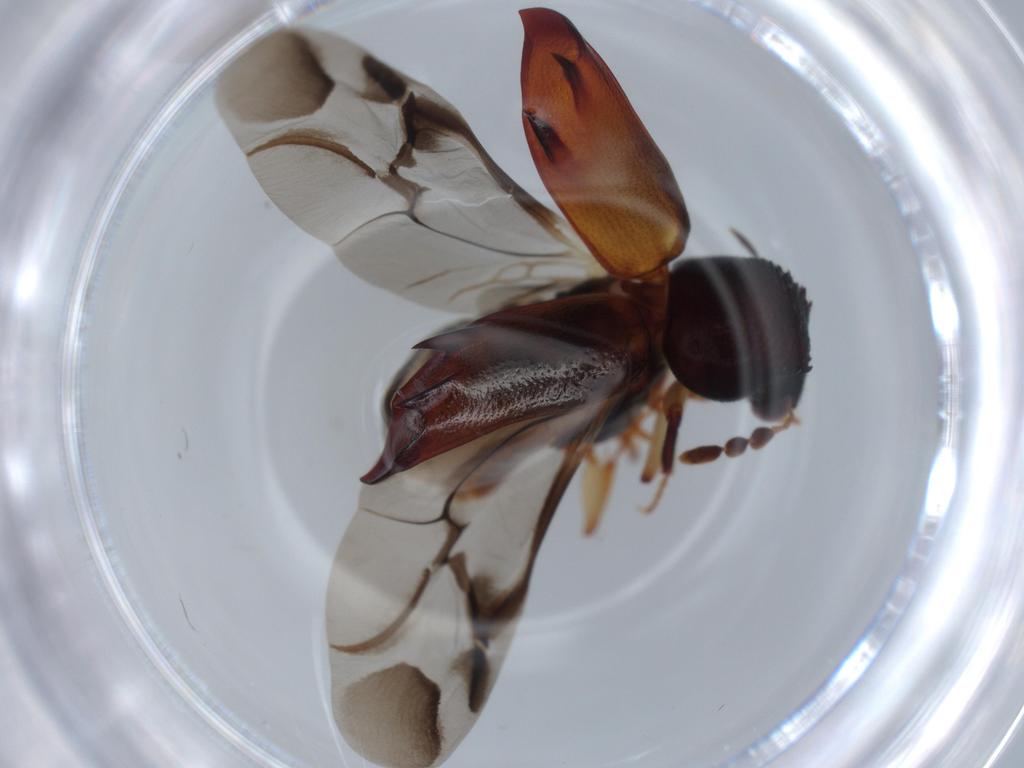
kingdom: Animalia
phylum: Arthropoda
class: Insecta
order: Coleoptera
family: Bostrichidae
